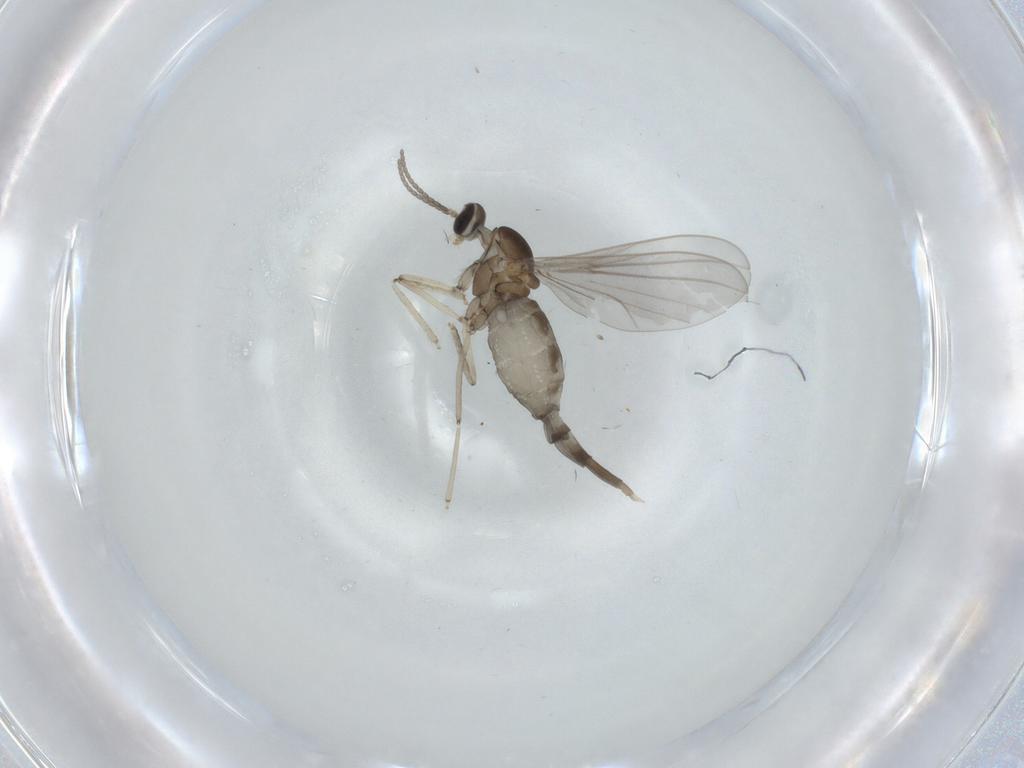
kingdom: Animalia
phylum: Arthropoda
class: Insecta
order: Diptera
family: Cecidomyiidae
